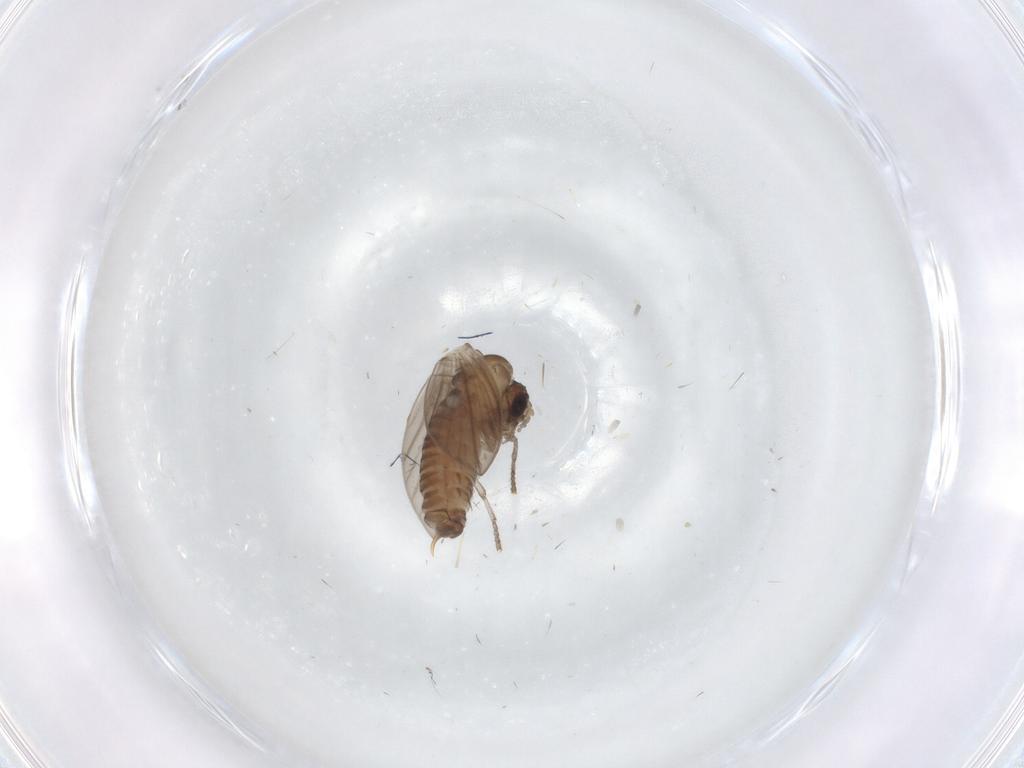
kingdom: Animalia
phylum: Arthropoda
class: Insecta
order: Diptera
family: Psychodidae
